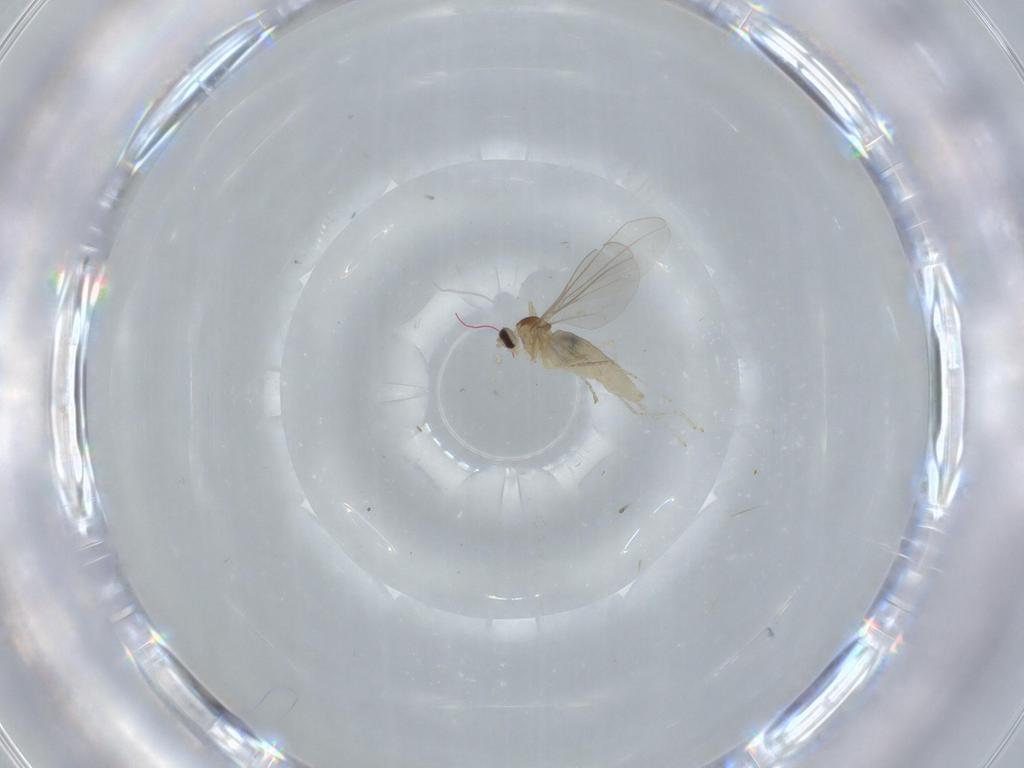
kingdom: Animalia
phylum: Arthropoda
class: Insecta
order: Diptera
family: Cecidomyiidae
